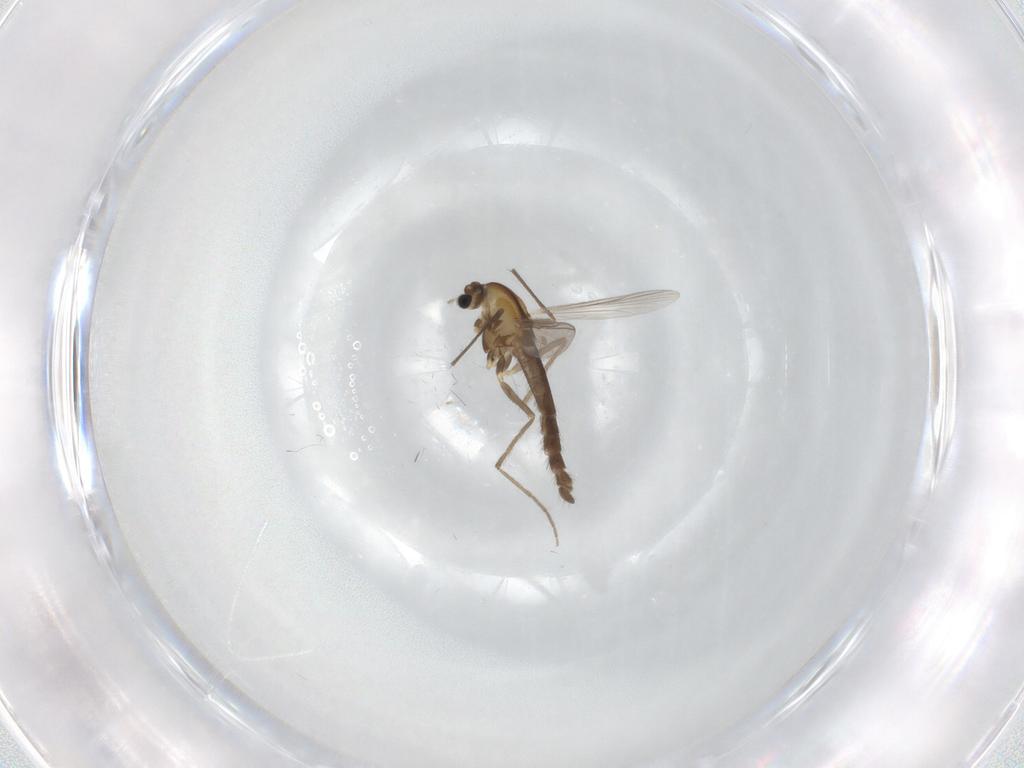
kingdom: Animalia
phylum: Arthropoda
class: Insecta
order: Diptera
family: Chironomidae
